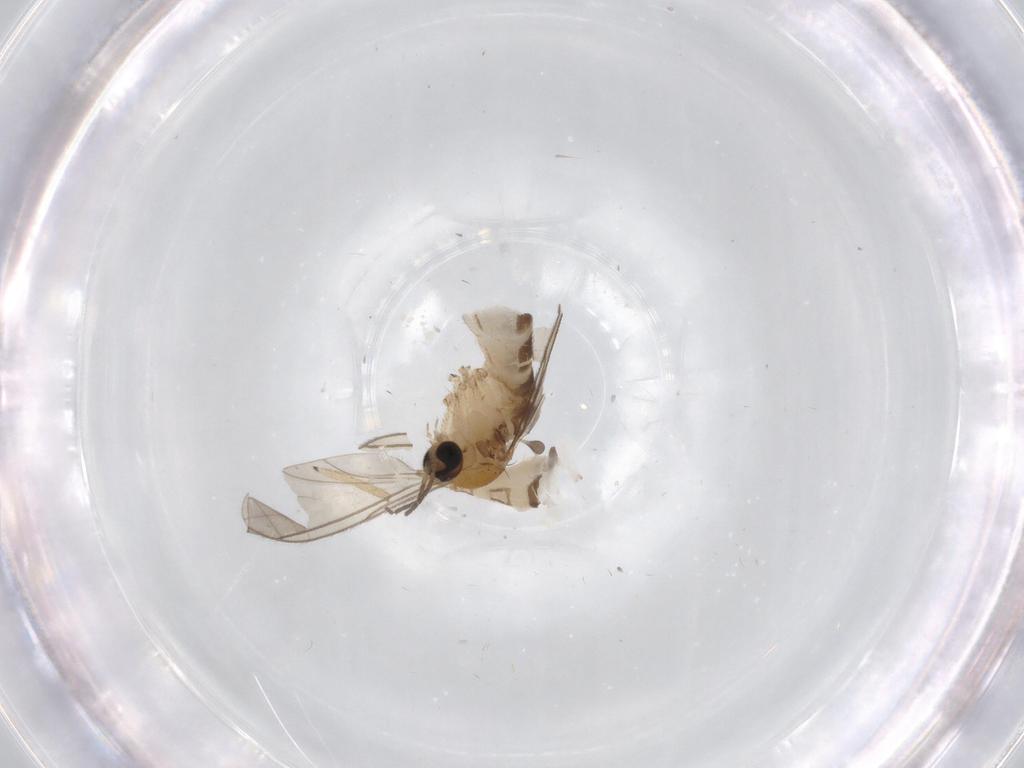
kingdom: Animalia
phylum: Arthropoda
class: Insecta
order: Diptera
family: Sciaridae
